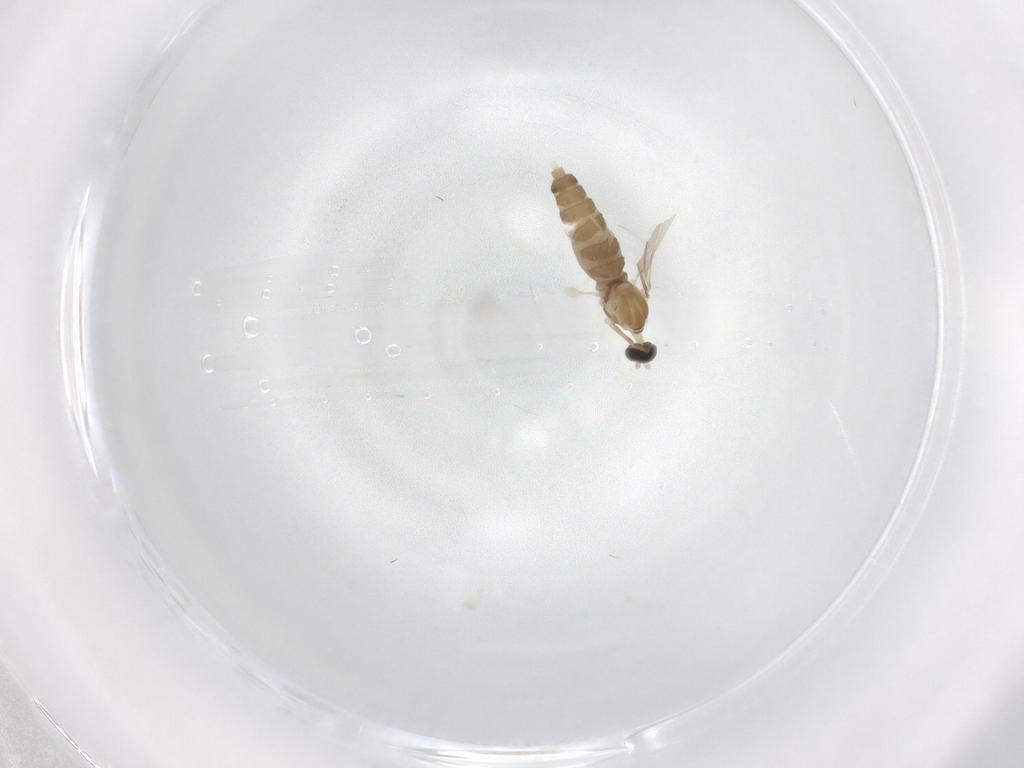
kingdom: Animalia
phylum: Arthropoda
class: Insecta
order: Diptera
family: Cecidomyiidae
